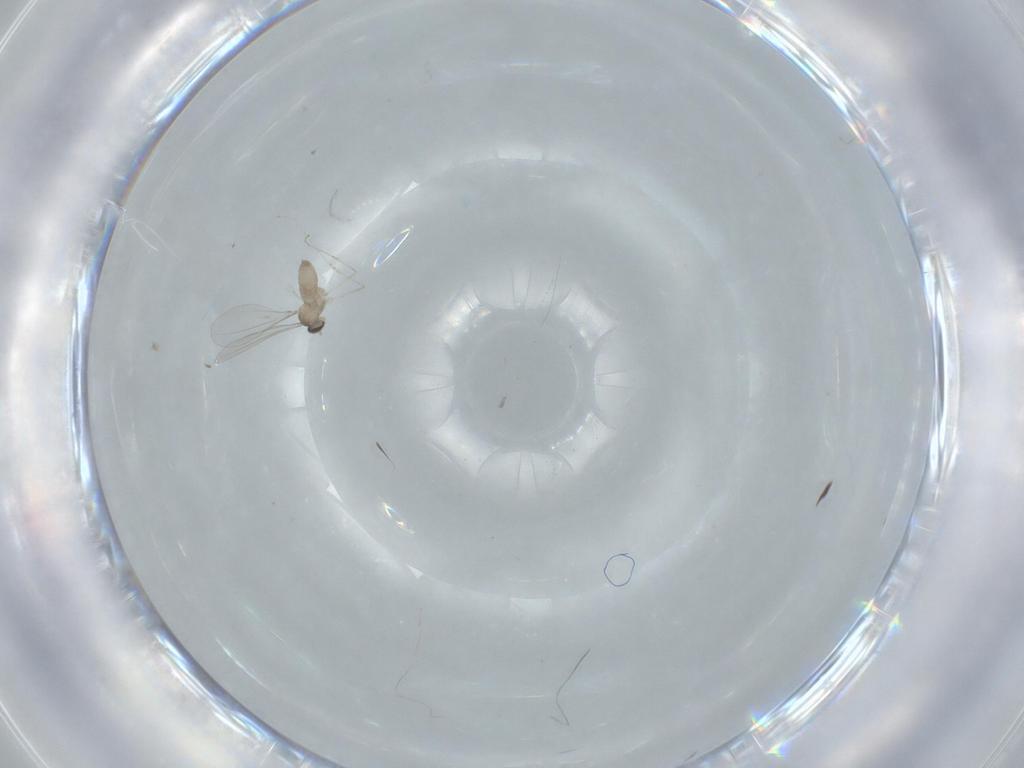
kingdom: Animalia
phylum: Arthropoda
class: Insecta
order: Diptera
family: Cecidomyiidae
